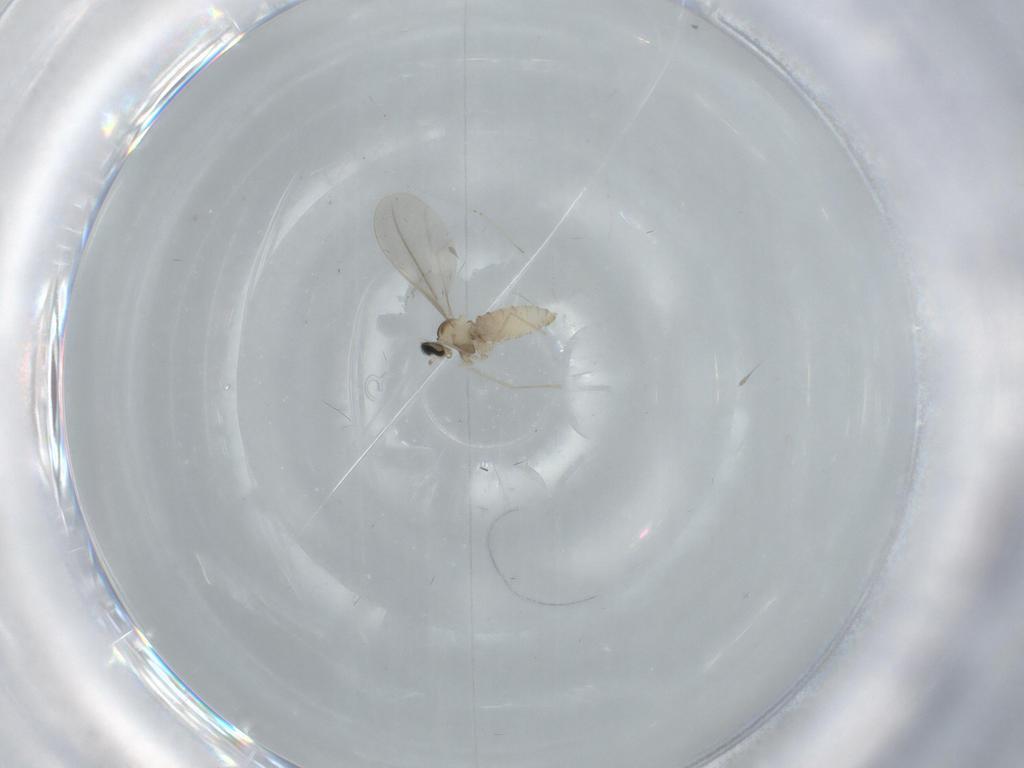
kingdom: Animalia
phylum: Arthropoda
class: Insecta
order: Diptera
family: Cecidomyiidae
